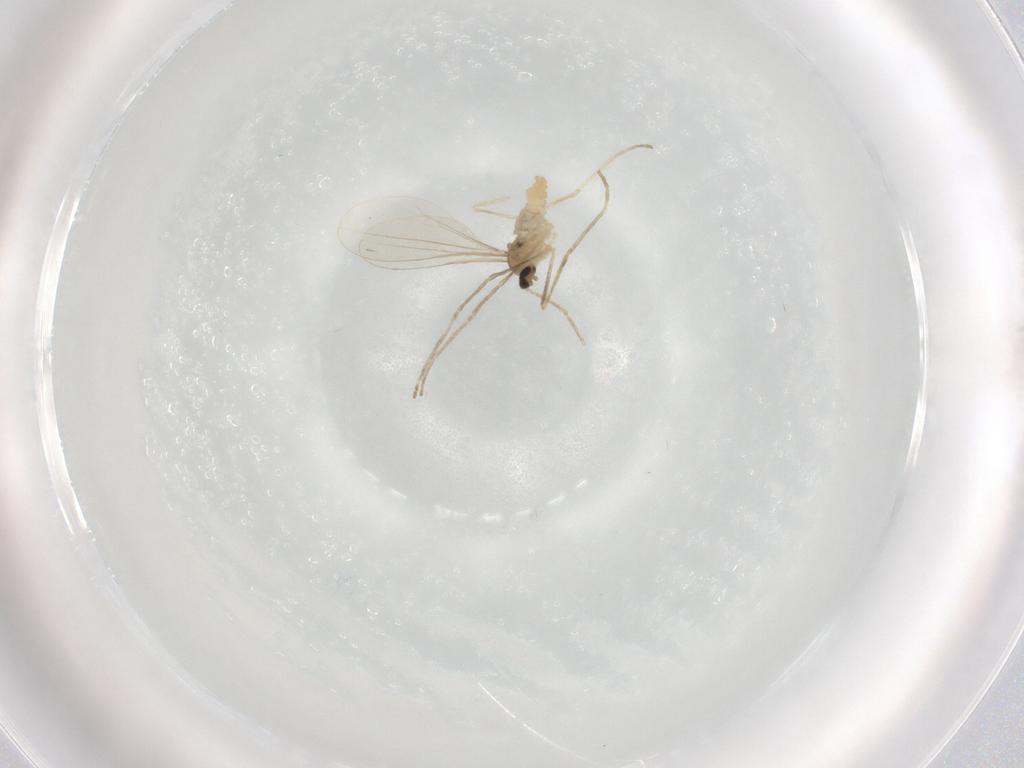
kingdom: Animalia
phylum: Arthropoda
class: Insecta
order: Diptera
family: Cecidomyiidae
